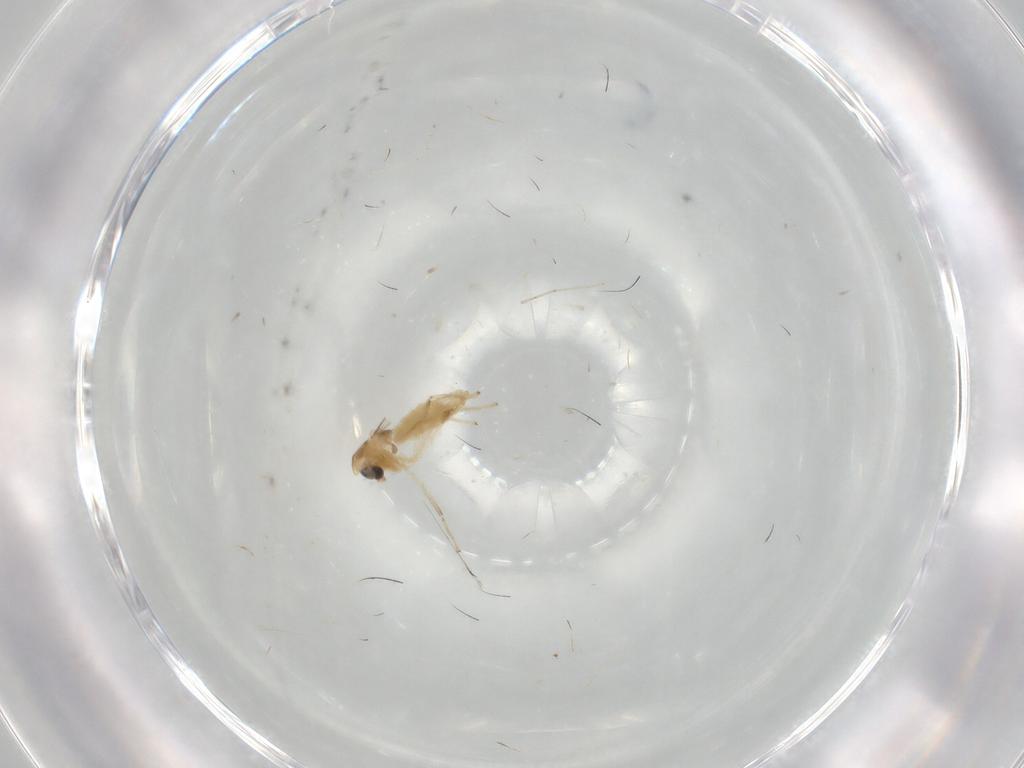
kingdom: Animalia
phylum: Arthropoda
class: Insecta
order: Diptera
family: Chironomidae
